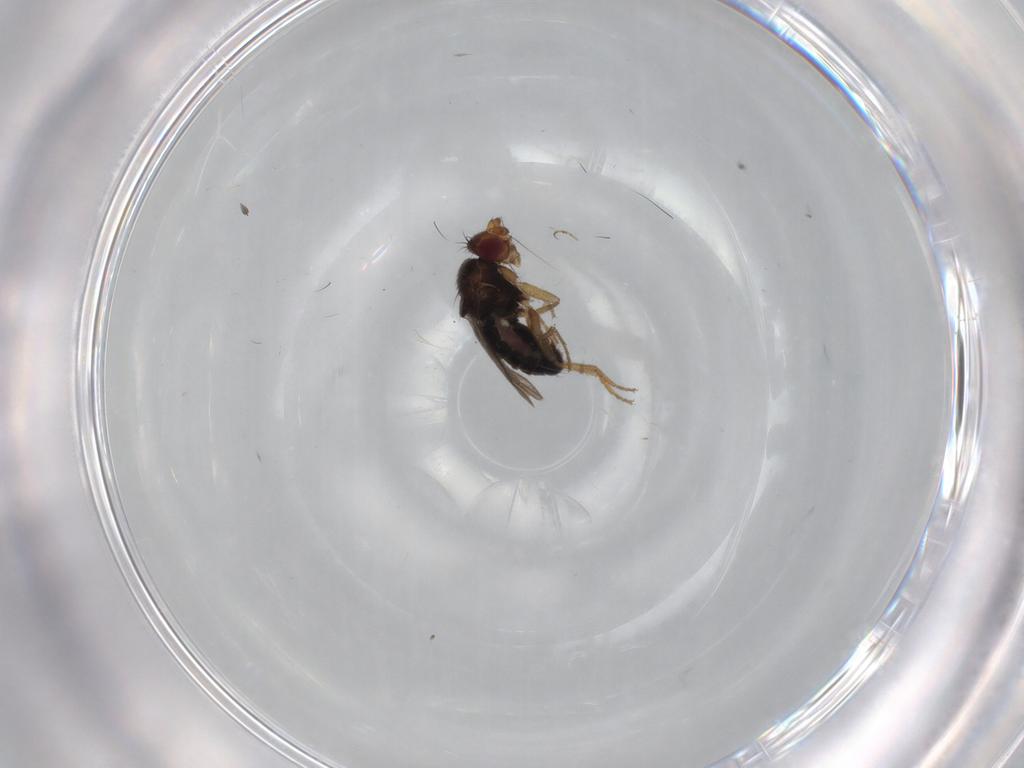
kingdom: Animalia
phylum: Arthropoda
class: Insecta
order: Diptera
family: Sphaeroceridae
